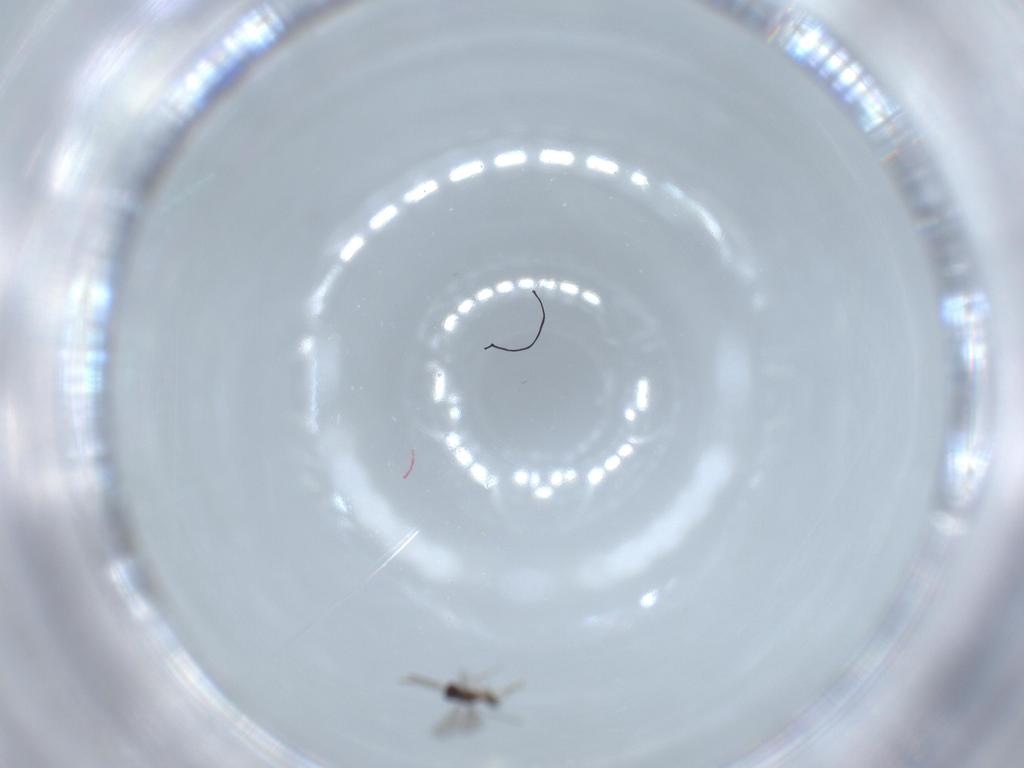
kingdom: Animalia
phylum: Arthropoda
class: Insecta
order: Hymenoptera
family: Scelionidae
